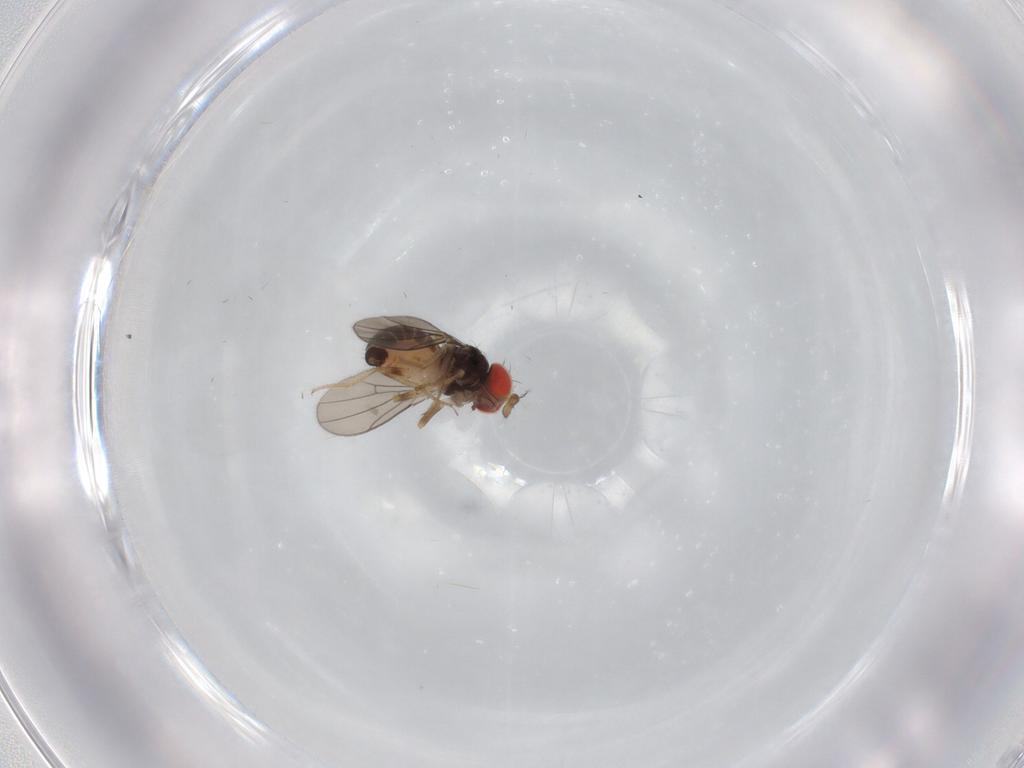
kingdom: Animalia
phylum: Arthropoda
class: Insecta
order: Diptera
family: Drosophilidae
